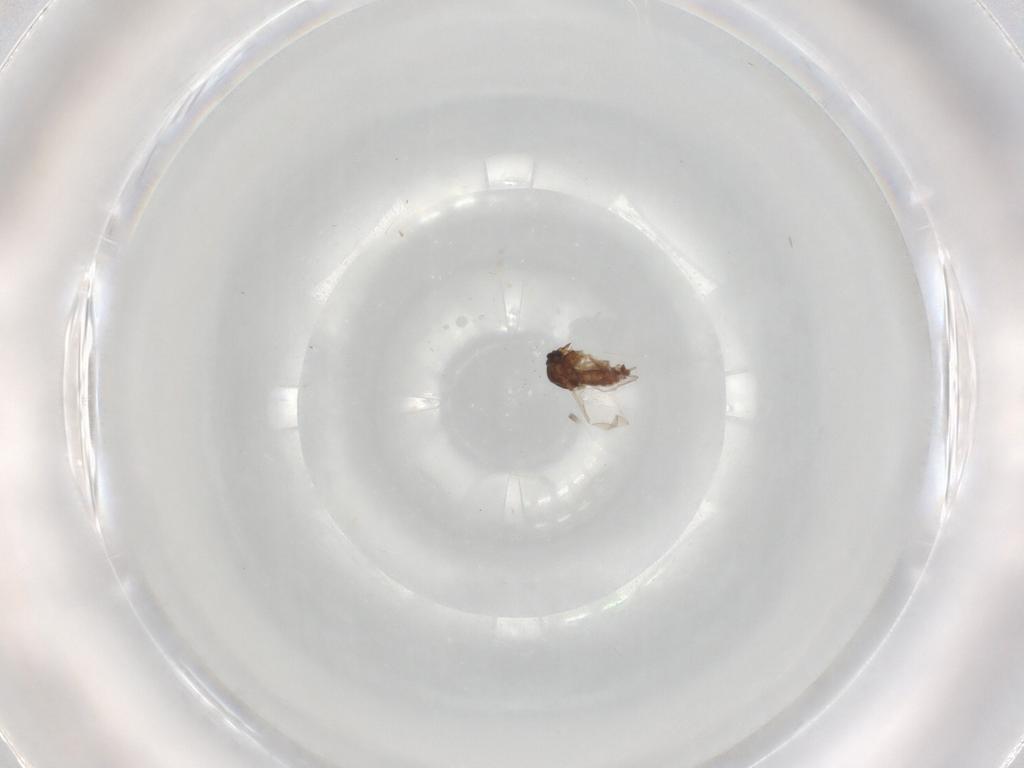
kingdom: Animalia
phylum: Arthropoda
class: Insecta
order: Diptera
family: Ceratopogonidae
